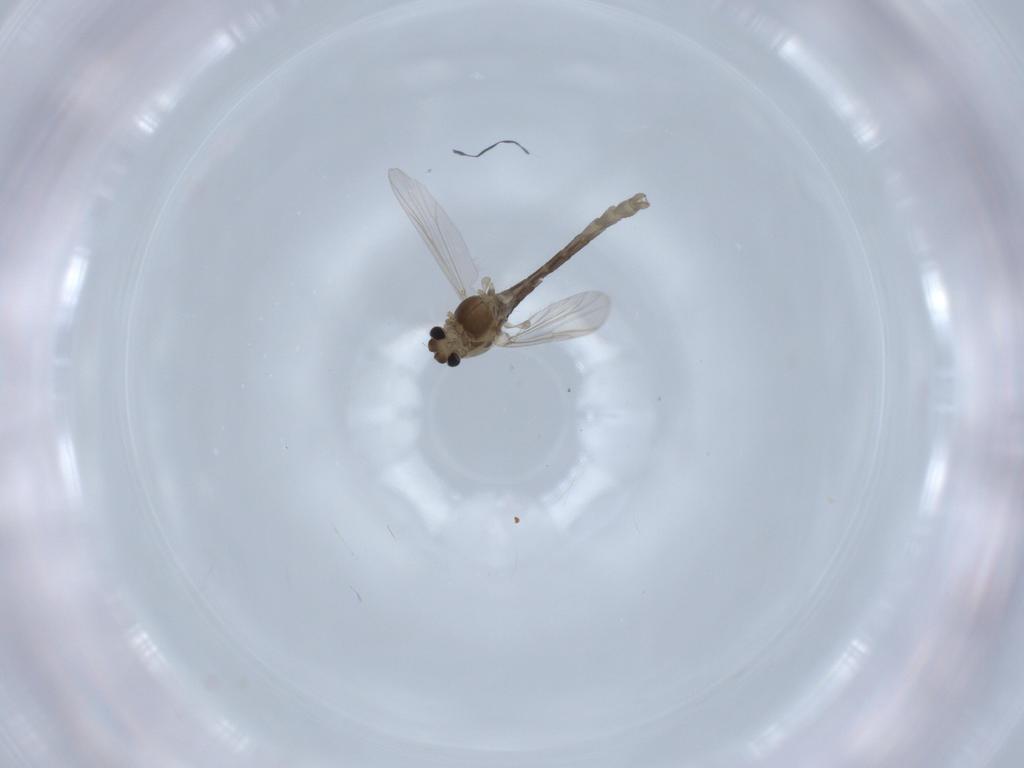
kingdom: Animalia
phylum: Arthropoda
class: Insecta
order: Diptera
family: Chironomidae
